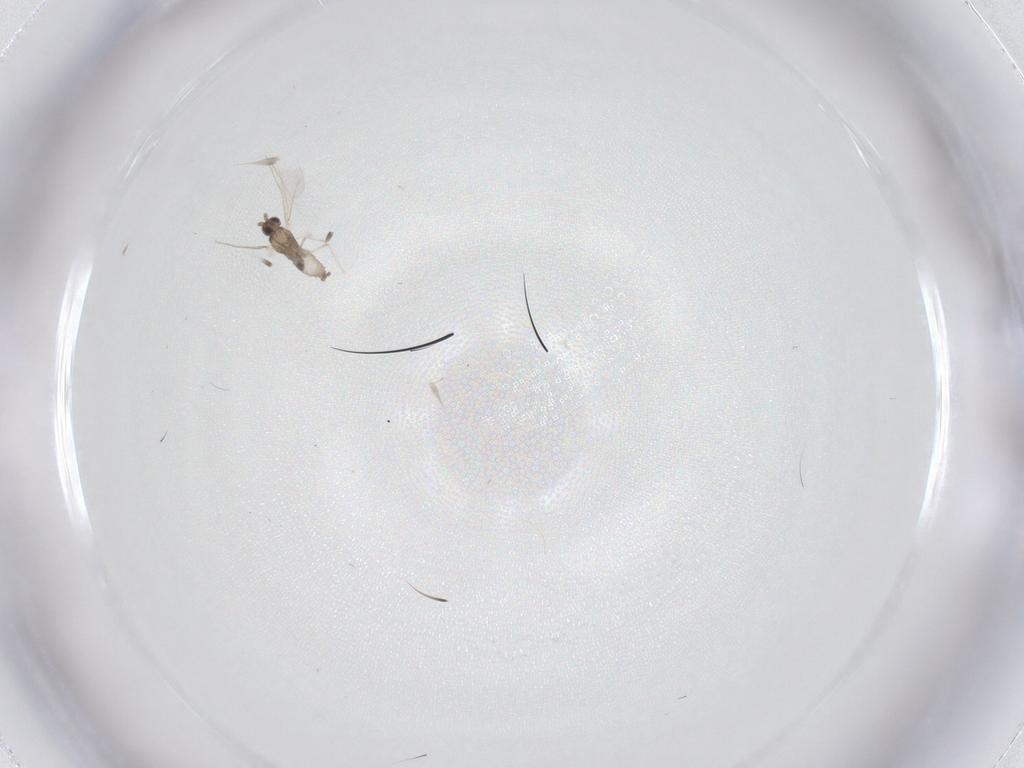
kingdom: Animalia
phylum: Arthropoda
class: Insecta
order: Diptera
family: Cecidomyiidae
